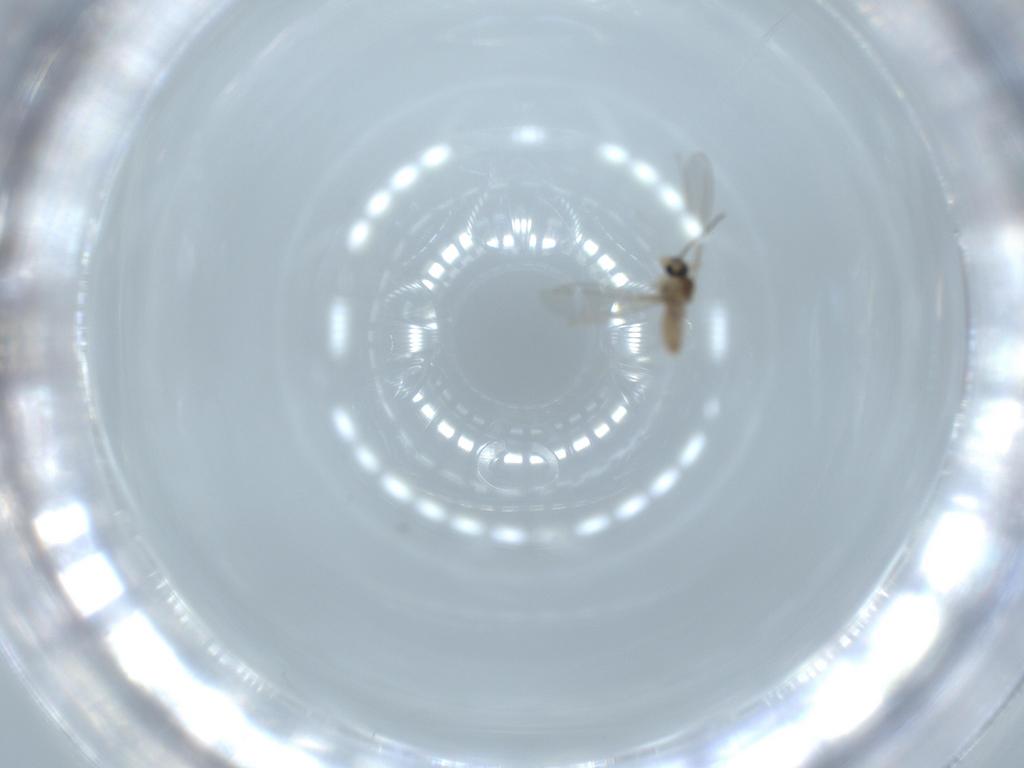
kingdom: Animalia
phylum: Arthropoda
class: Insecta
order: Diptera
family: Cecidomyiidae
